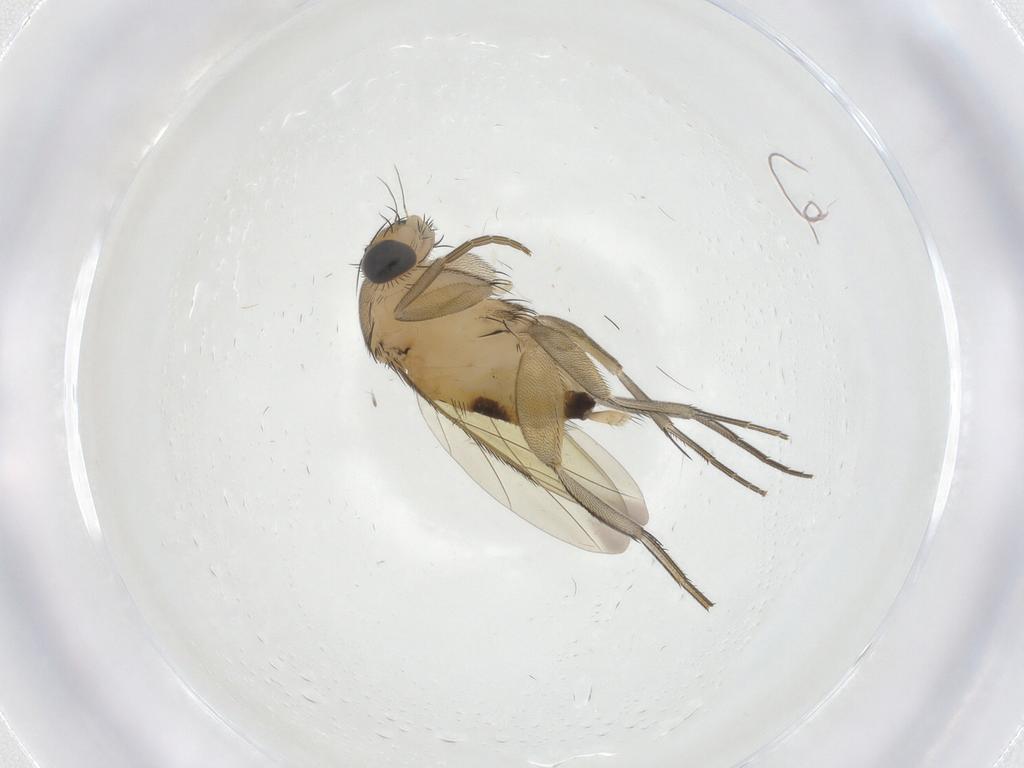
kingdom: Animalia
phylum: Arthropoda
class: Insecta
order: Diptera
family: Phoridae
